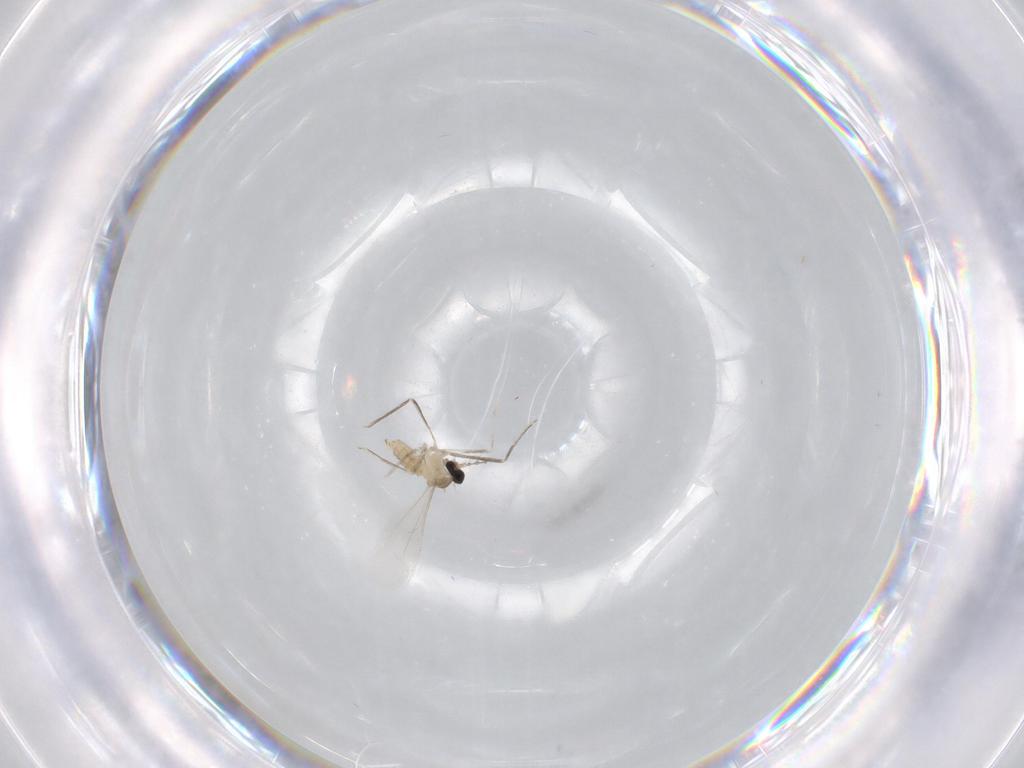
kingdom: Animalia
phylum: Arthropoda
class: Insecta
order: Diptera
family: Cecidomyiidae
